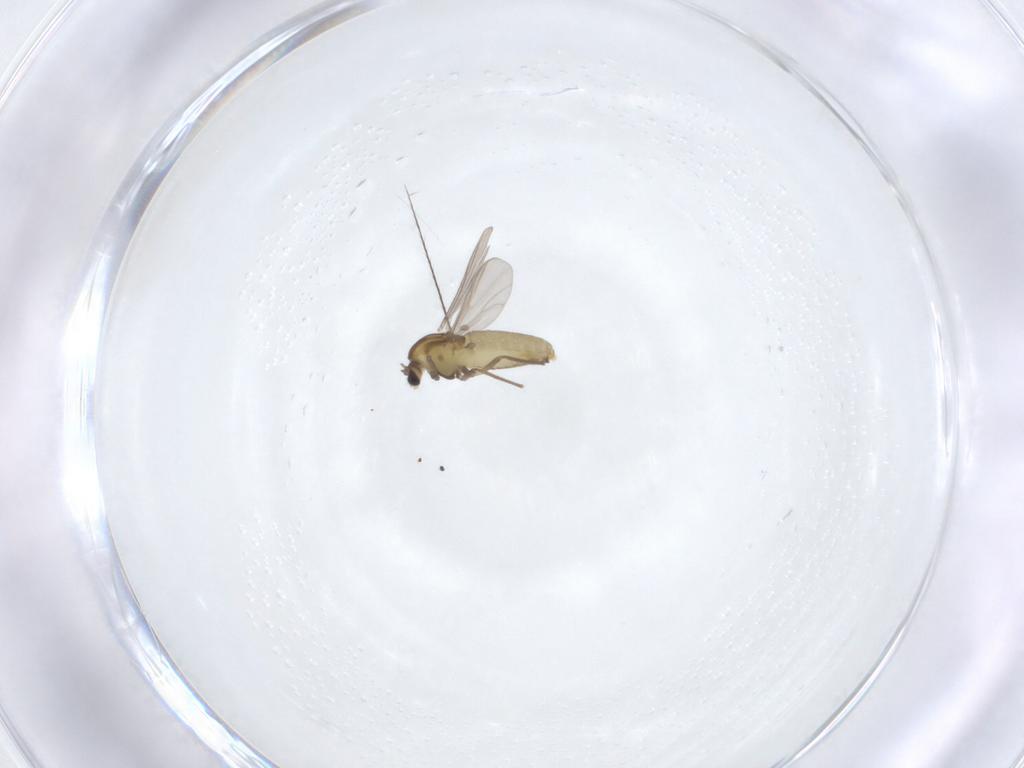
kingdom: Animalia
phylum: Arthropoda
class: Insecta
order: Diptera
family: Chironomidae
